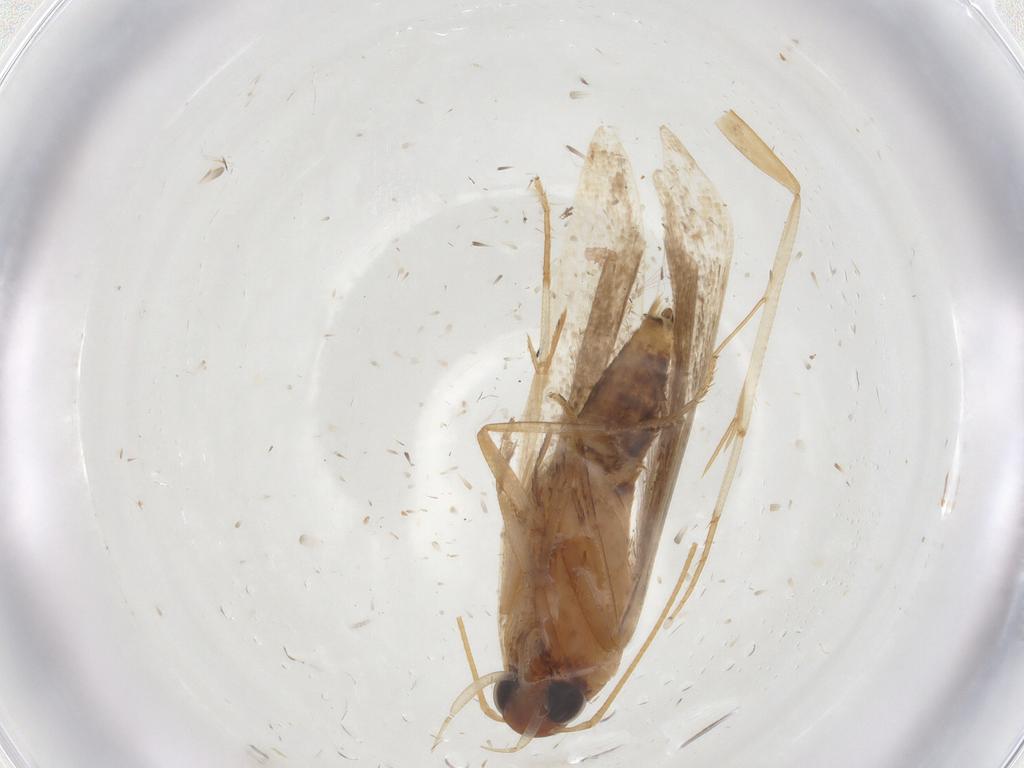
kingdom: Animalia
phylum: Arthropoda
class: Insecta
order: Lepidoptera
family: Gelechiidae
